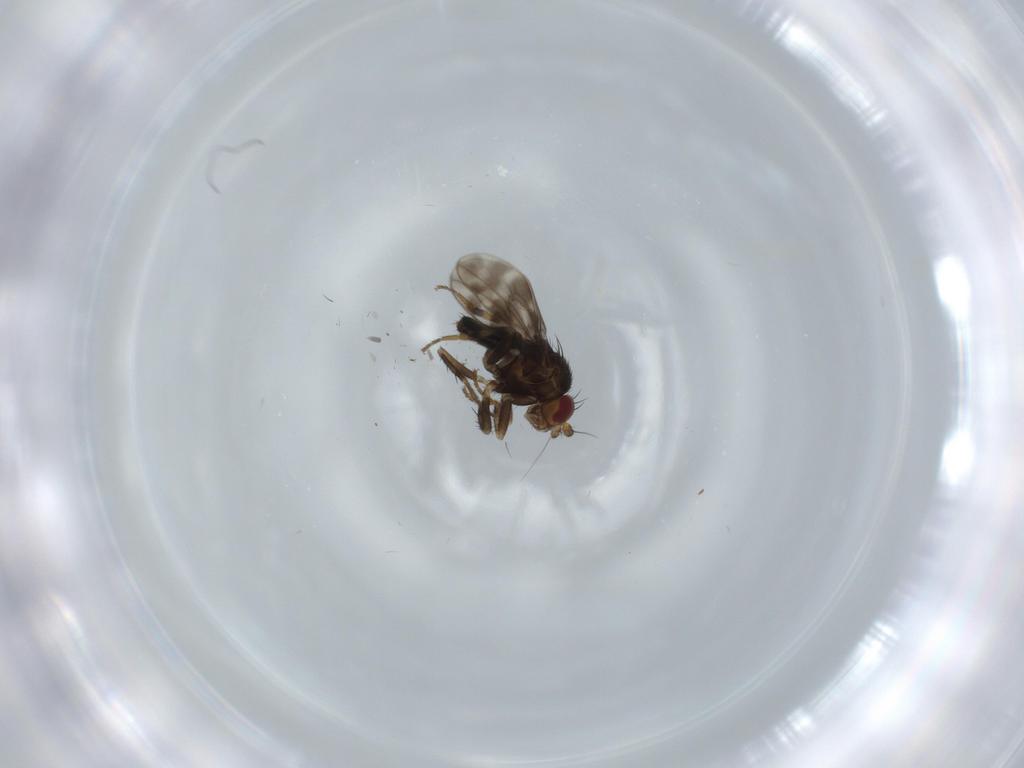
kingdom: Animalia
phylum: Arthropoda
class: Insecta
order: Diptera
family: Sphaeroceridae
